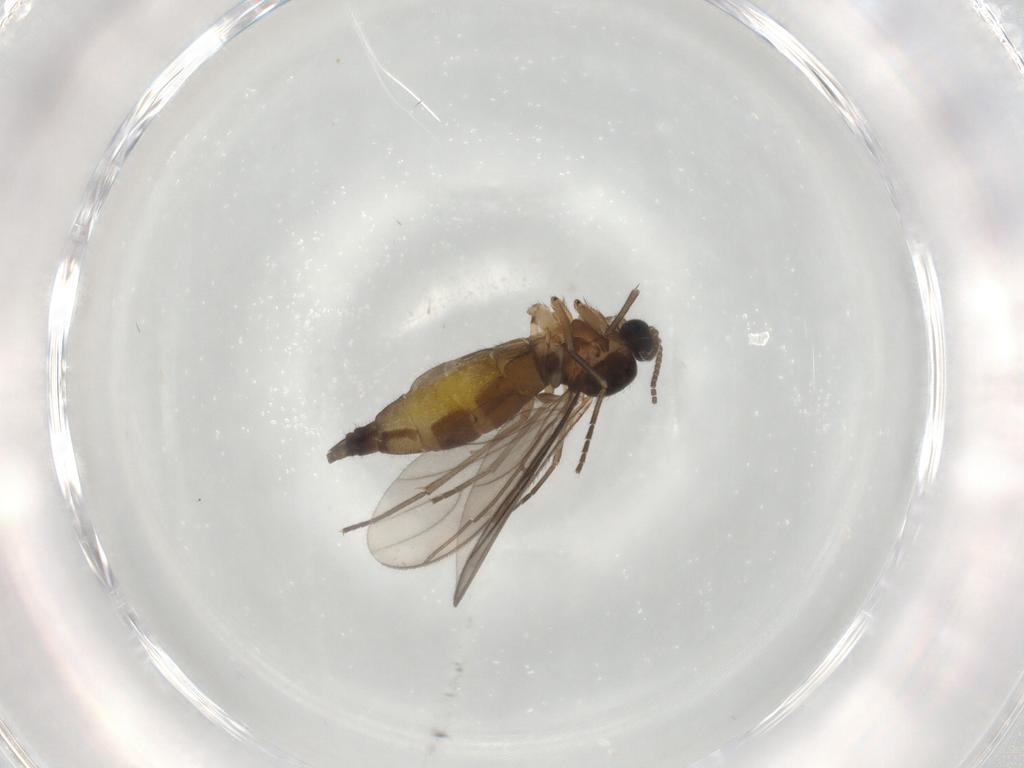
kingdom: Animalia
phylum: Arthropoda
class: Insecta
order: Diptera
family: Sciaridae
